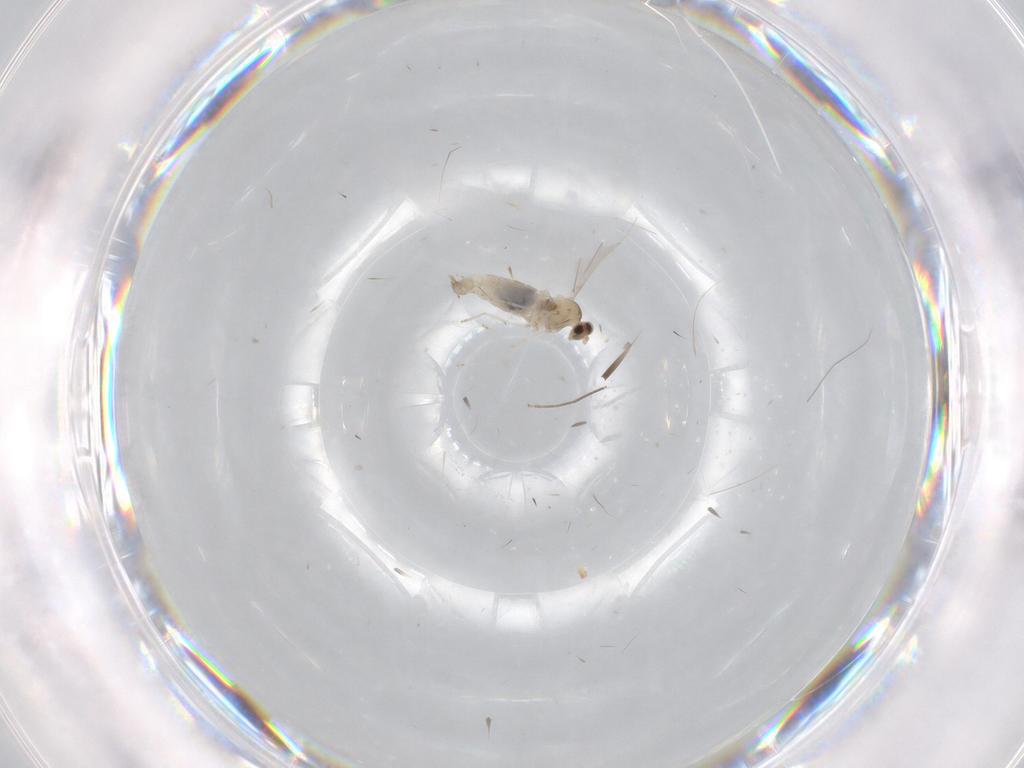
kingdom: Animalia
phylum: Arthropoda
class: Insecta
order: Diptera
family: Cecidomyiidae
